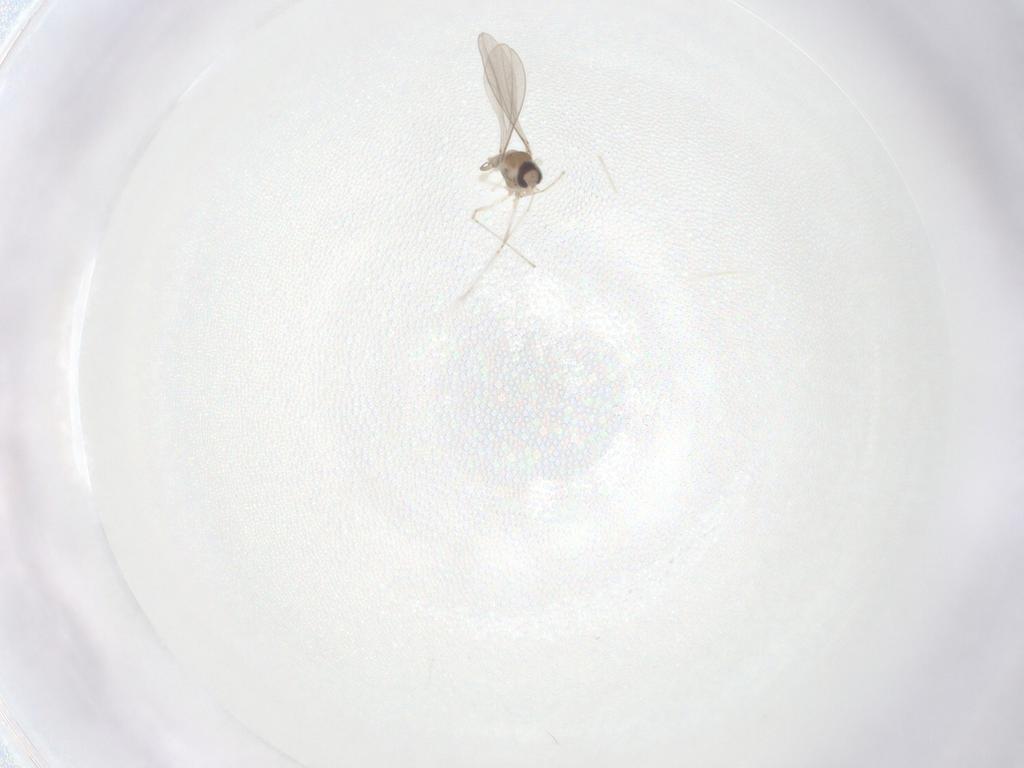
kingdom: Animalia
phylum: Arthropoda
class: Insecta
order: Diptera
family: Cecidomyiidae
